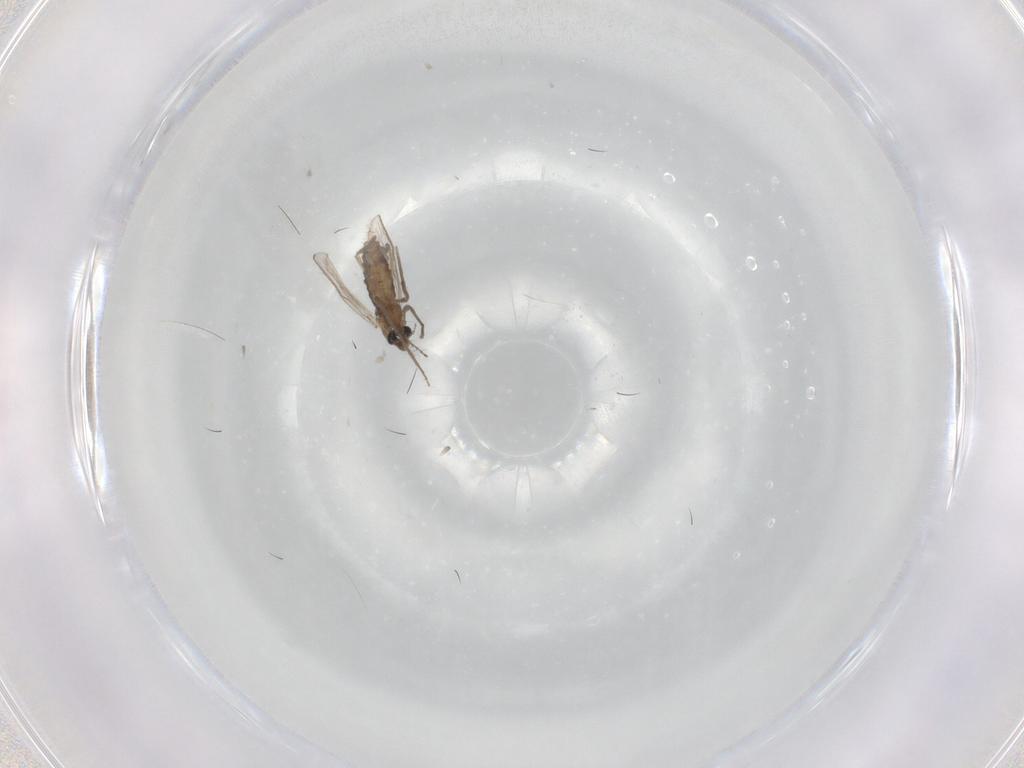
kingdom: Animalia
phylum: Arthropoda
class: Insecta
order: Diptera
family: Chironomidae
